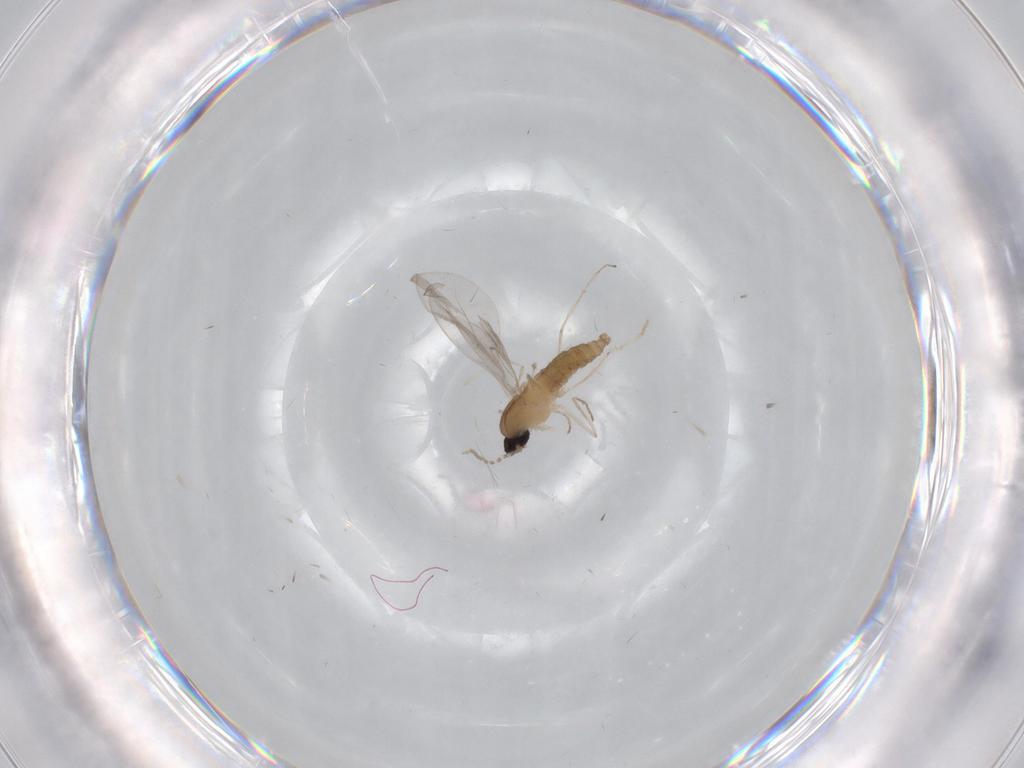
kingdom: Animalia
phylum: Arthropoda
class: Insecta
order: Diptera
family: Cecidomyiidae
